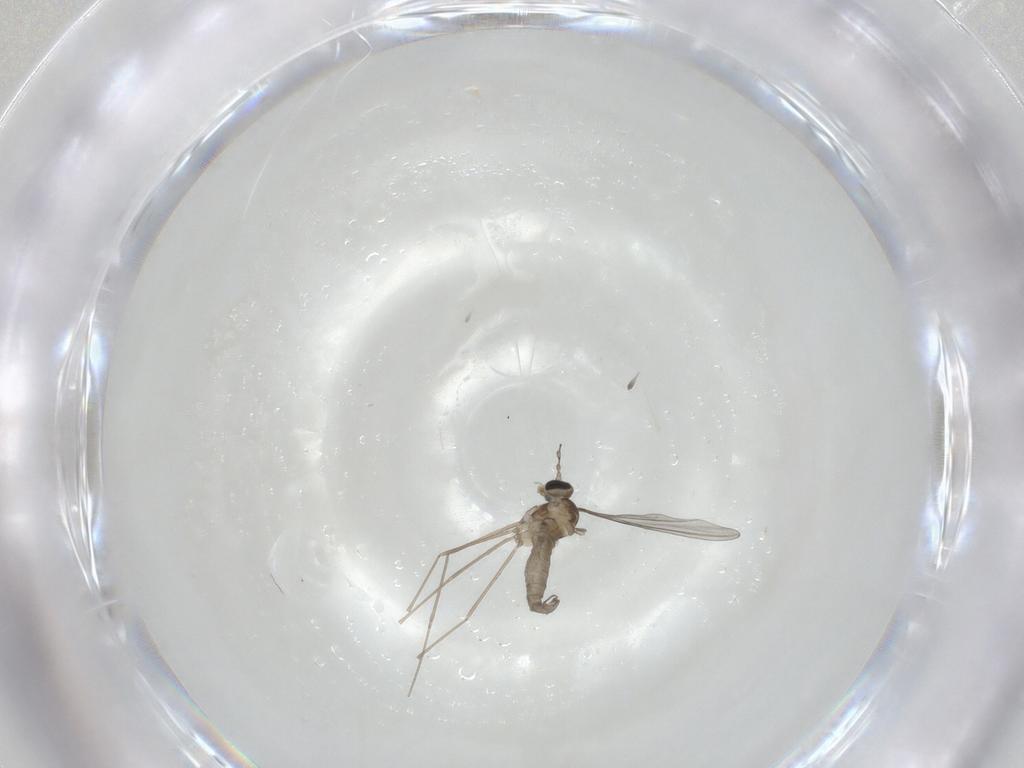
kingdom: Animalia
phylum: Arthropoda
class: Insecta
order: Diptera
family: Cecidomyiidae
